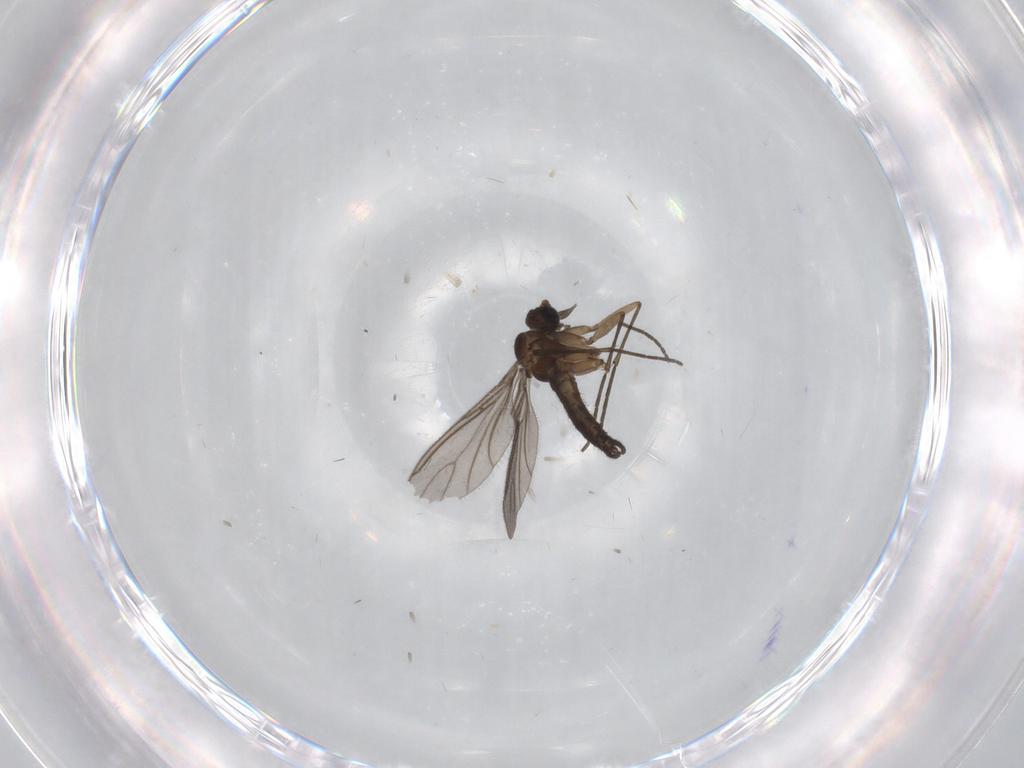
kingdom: Animalia
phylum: Arthropoda
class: Insecta
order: Diptera
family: Sciaridae
